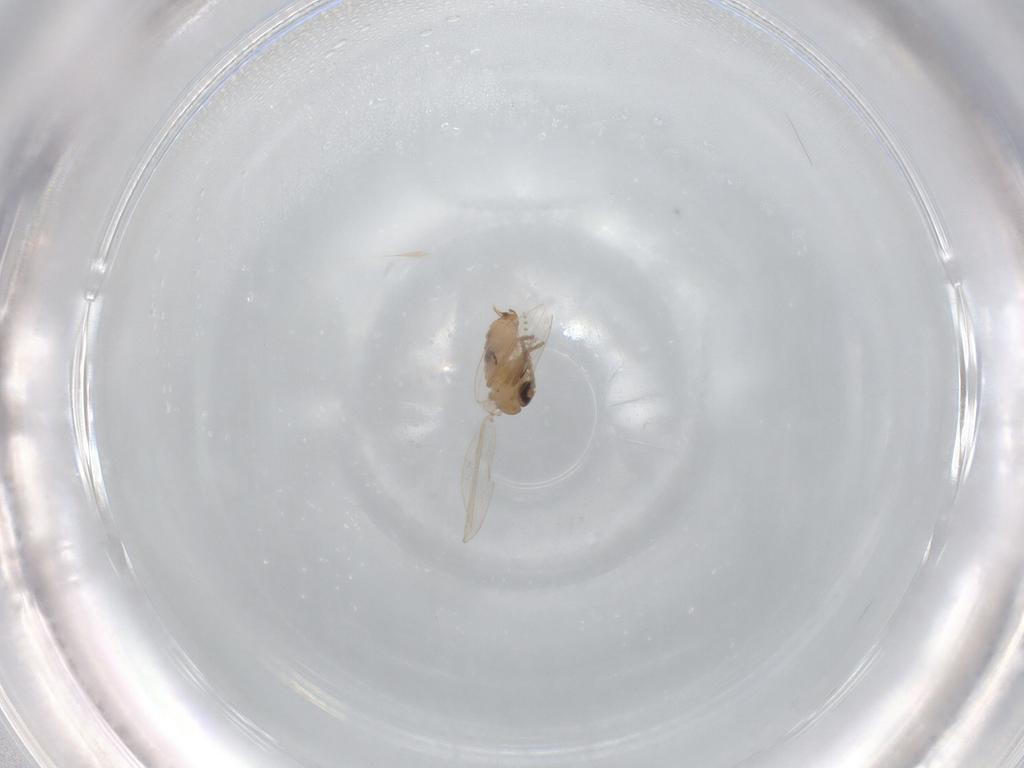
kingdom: Animalia
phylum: Arthropoda
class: Insecta
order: Diptera
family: Psychodidae
